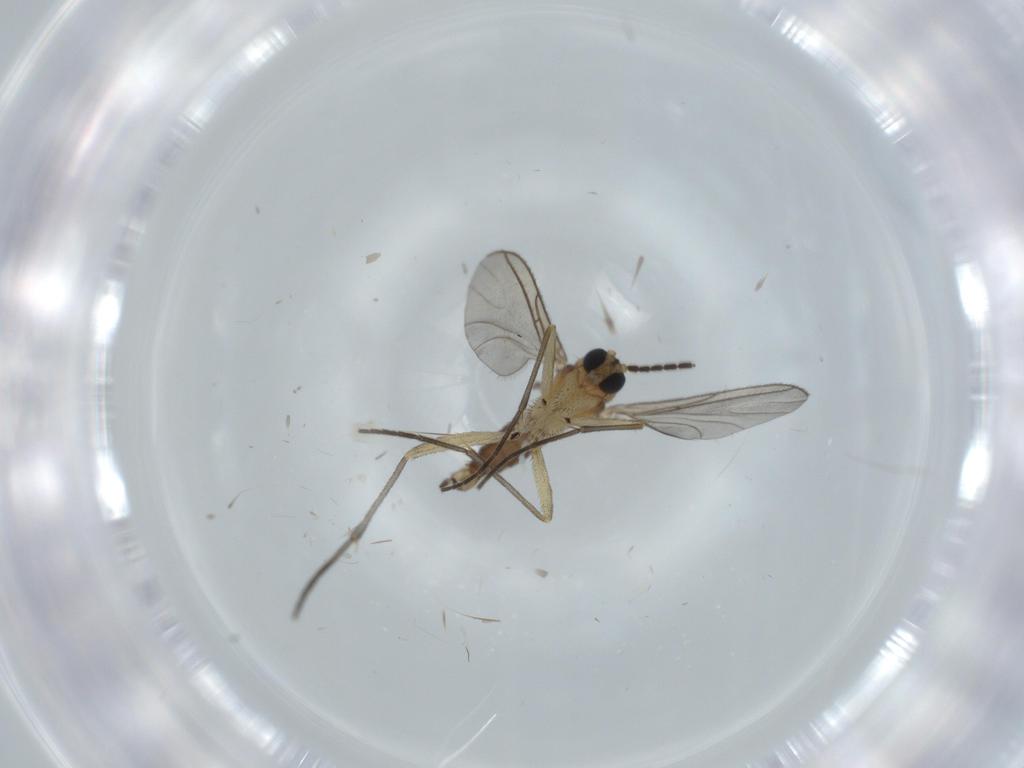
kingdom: Animalia
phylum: Arthropoda
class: Insecta
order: Diptera
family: Sciaridae
